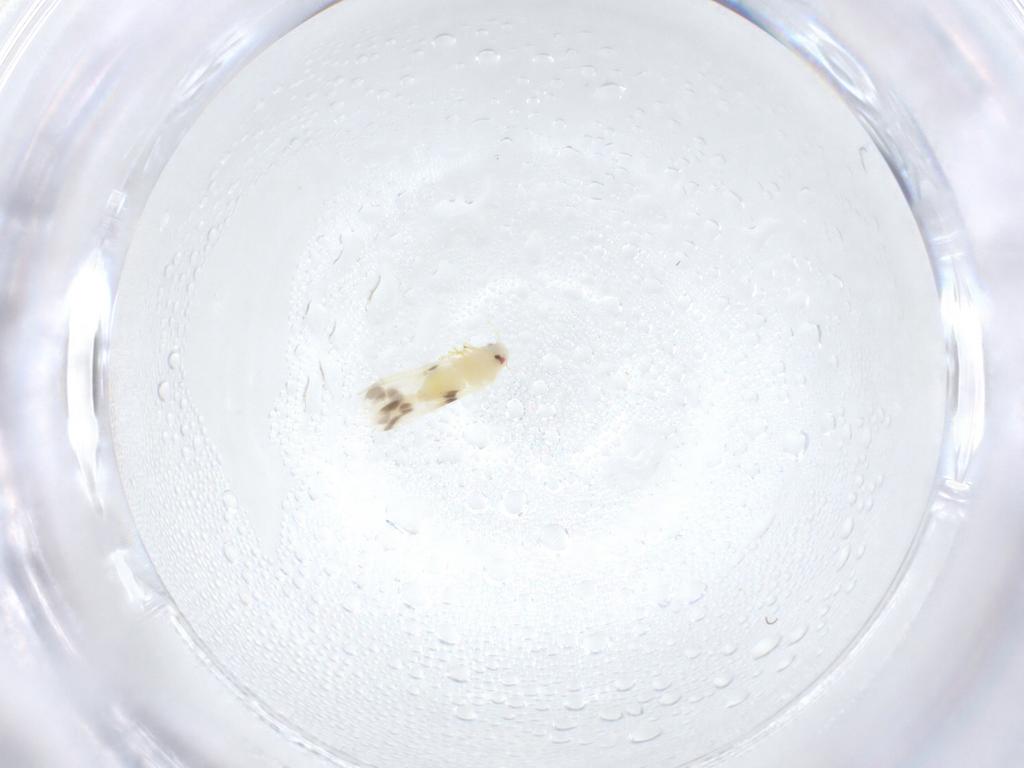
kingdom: Animalia
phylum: Arthropoda
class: Insecta
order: Hemiptera
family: Aleyrodidae
